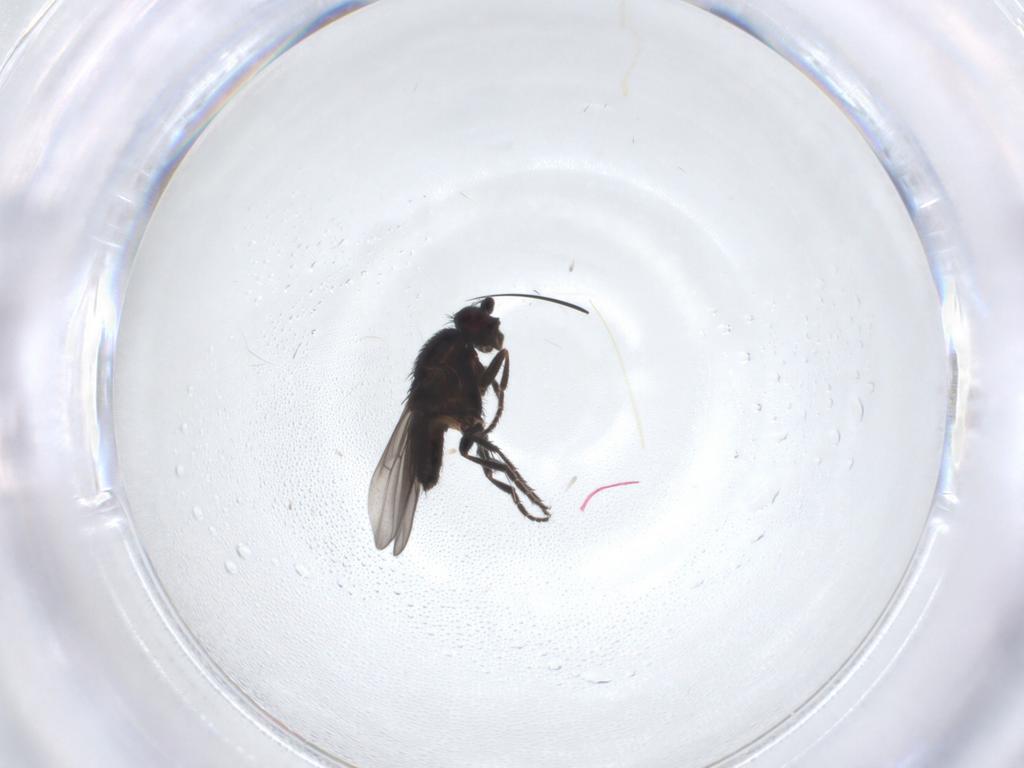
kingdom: Animalia
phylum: Arthropoda
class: Insecta
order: Diptera
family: Sphaeroceridae
